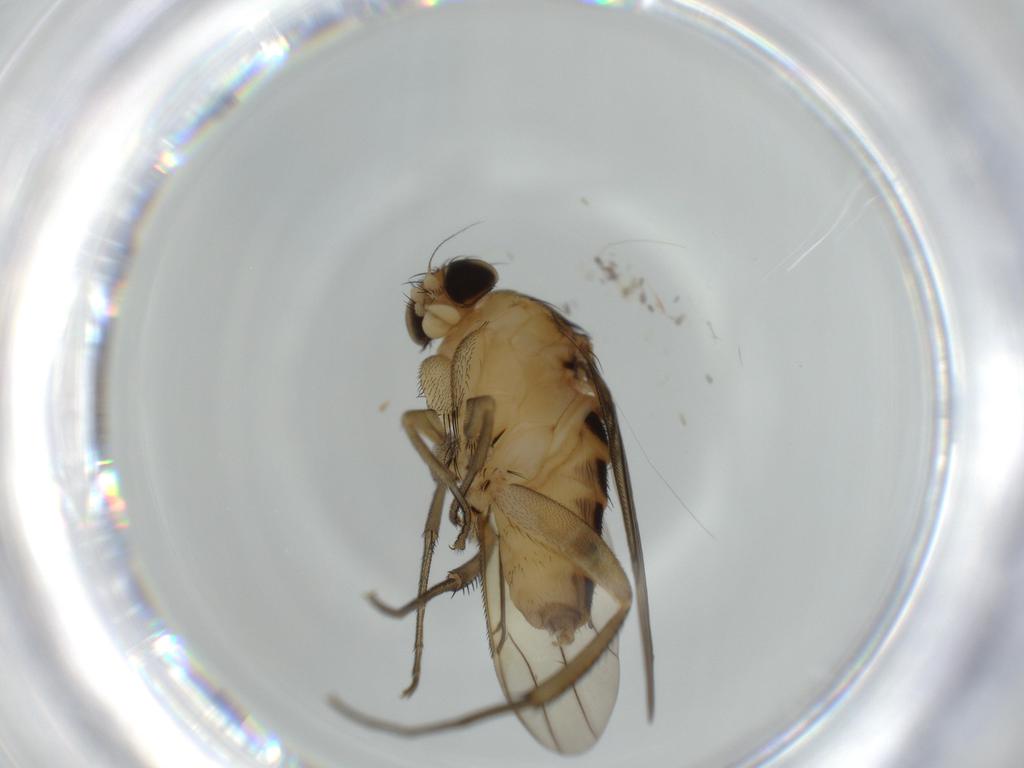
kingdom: Animalia
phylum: Arthropoda
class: Insecta
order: Diptera
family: Phoridae
